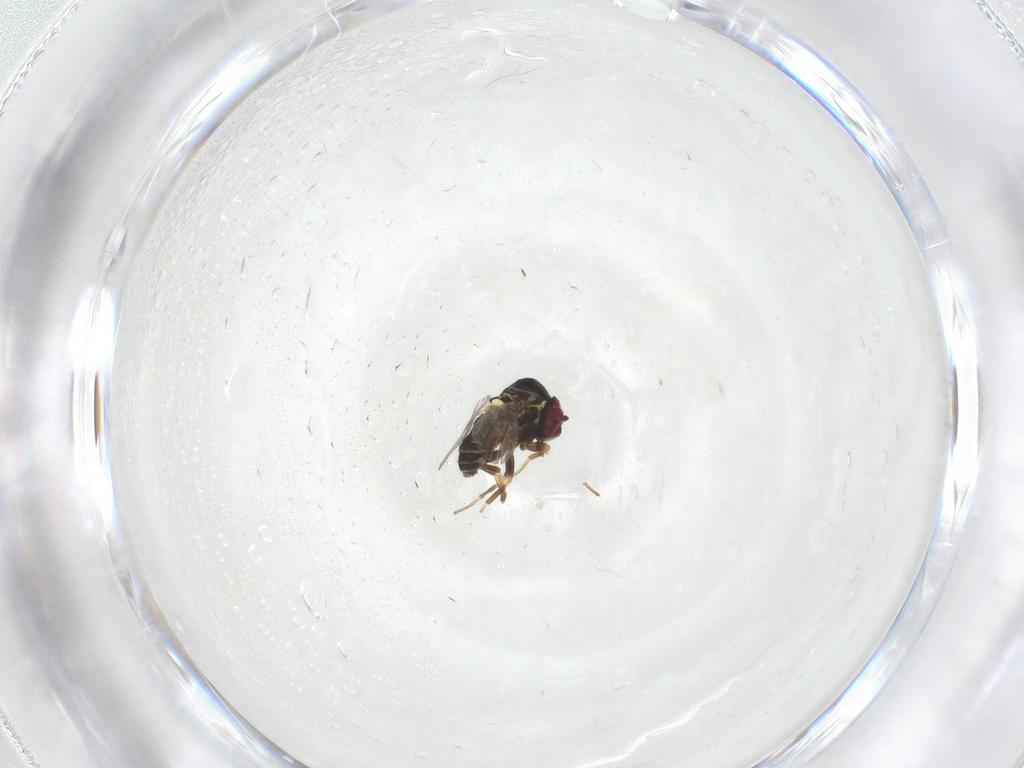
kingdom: Animalia
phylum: Arthropoda
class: Insecta
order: Diptera
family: Mythicomyiidae
